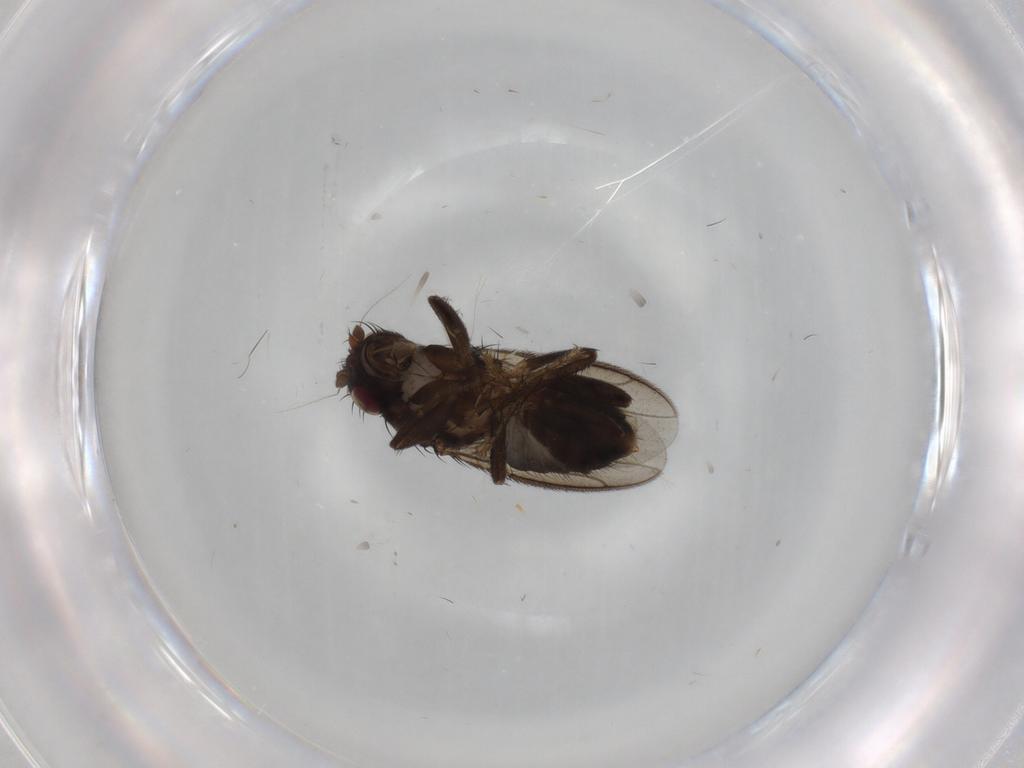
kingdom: Animalia
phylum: Arthropoda
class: Insecta
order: Diptera
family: Sphaeroceridae
